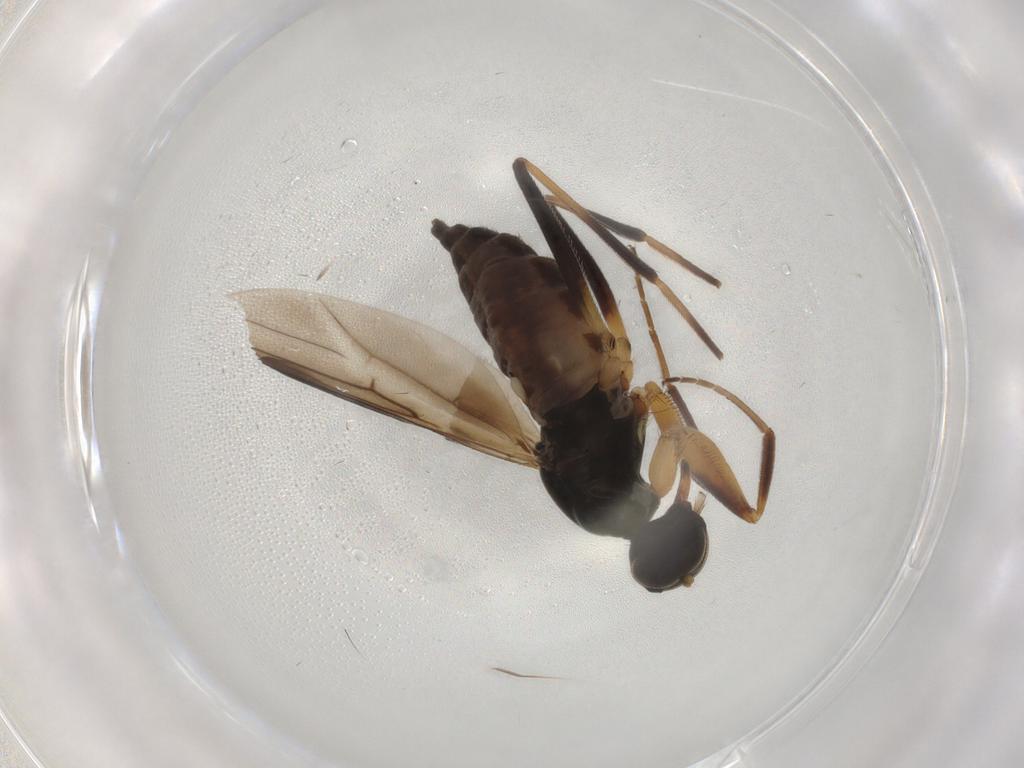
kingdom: Animalia
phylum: Arthropoda
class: Insecta
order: Diptera
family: Hybotidae
